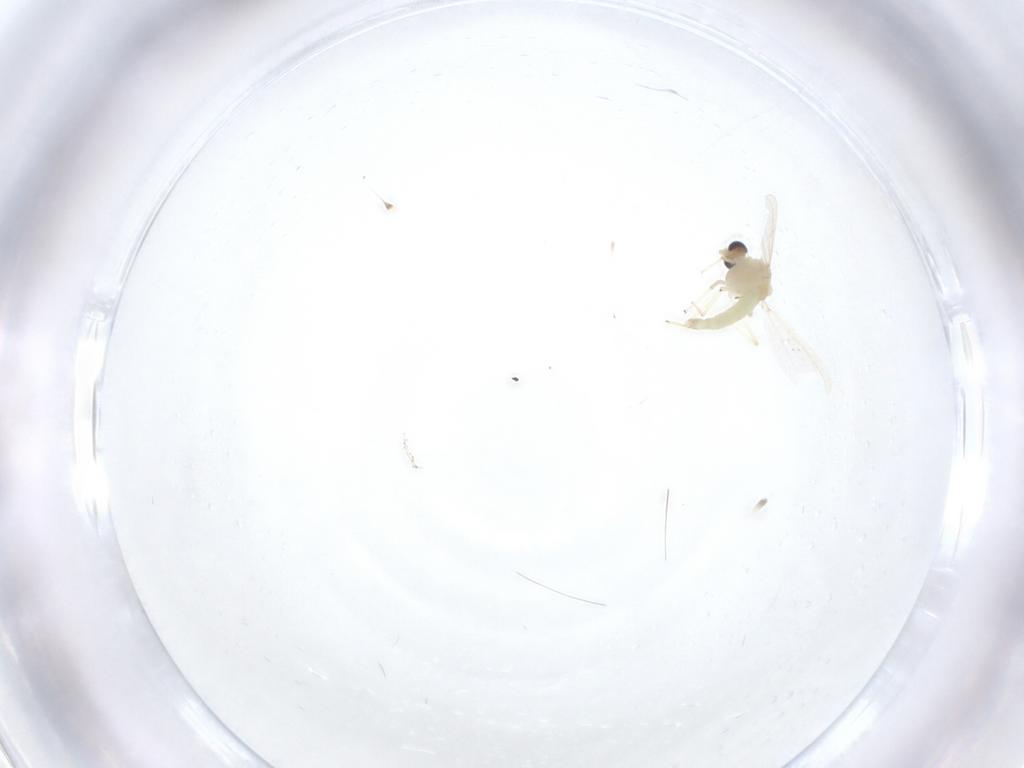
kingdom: Animalia
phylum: Arthropoda
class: Insecta
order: Diptera
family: Chironomidae
